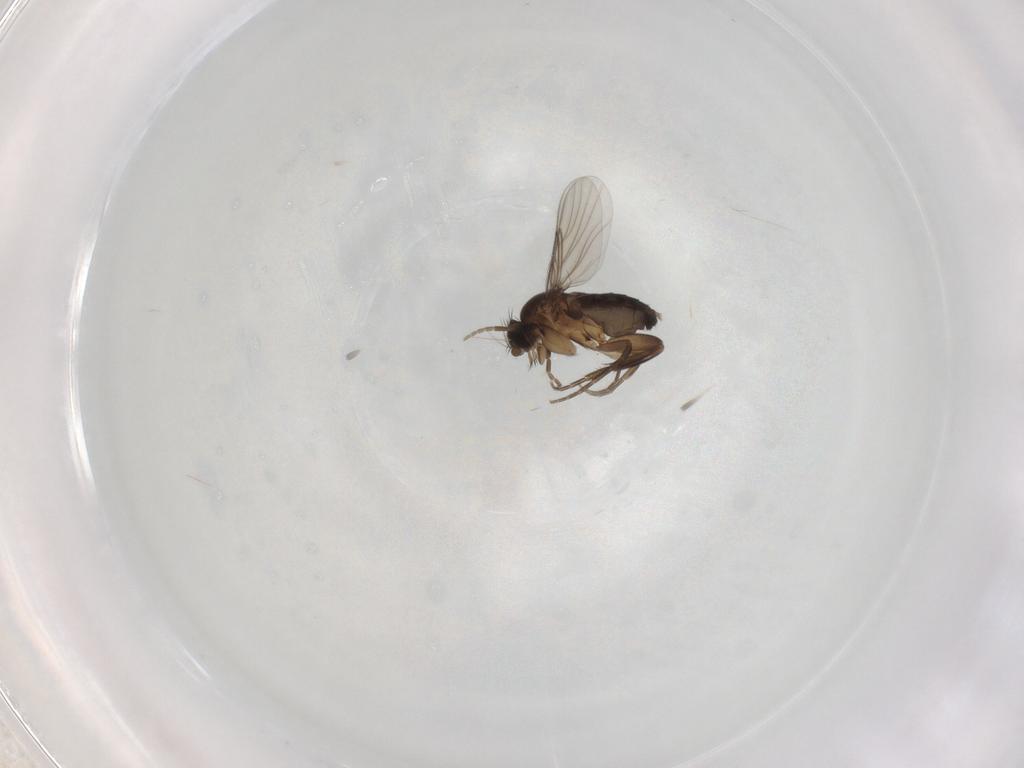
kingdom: Animalia
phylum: Arthropoda
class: Insecta
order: Diptera
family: Phoridae
